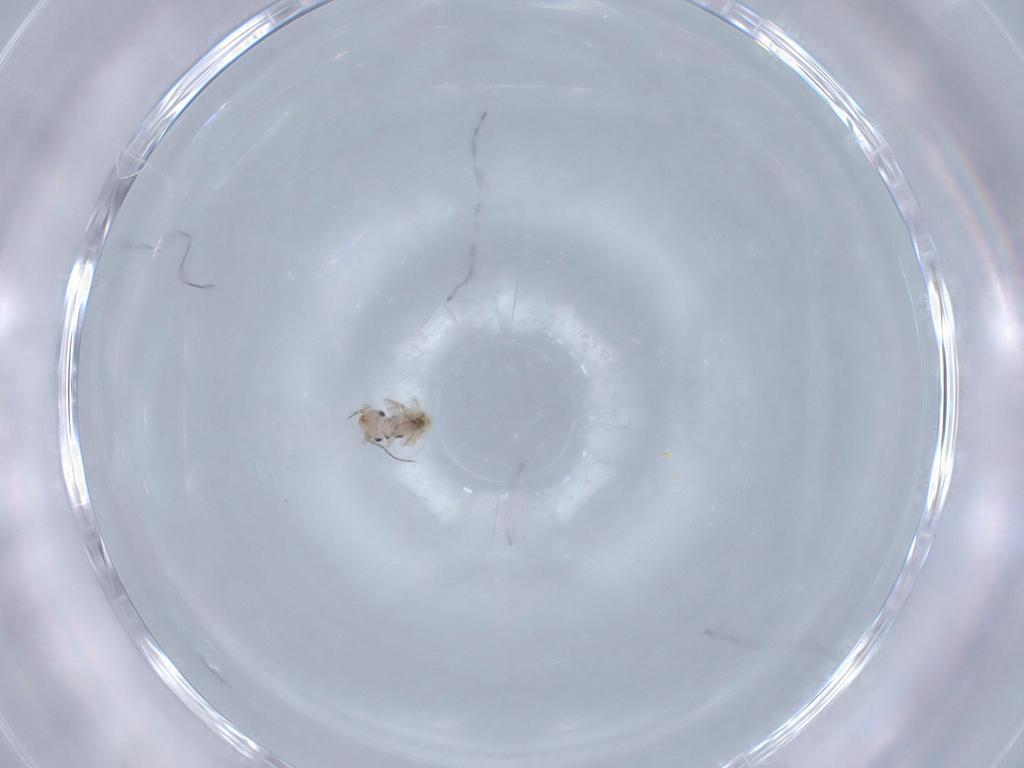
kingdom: Animalia
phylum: Arthropoda
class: Insecta
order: Psocodea
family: Lepidopsocidae
